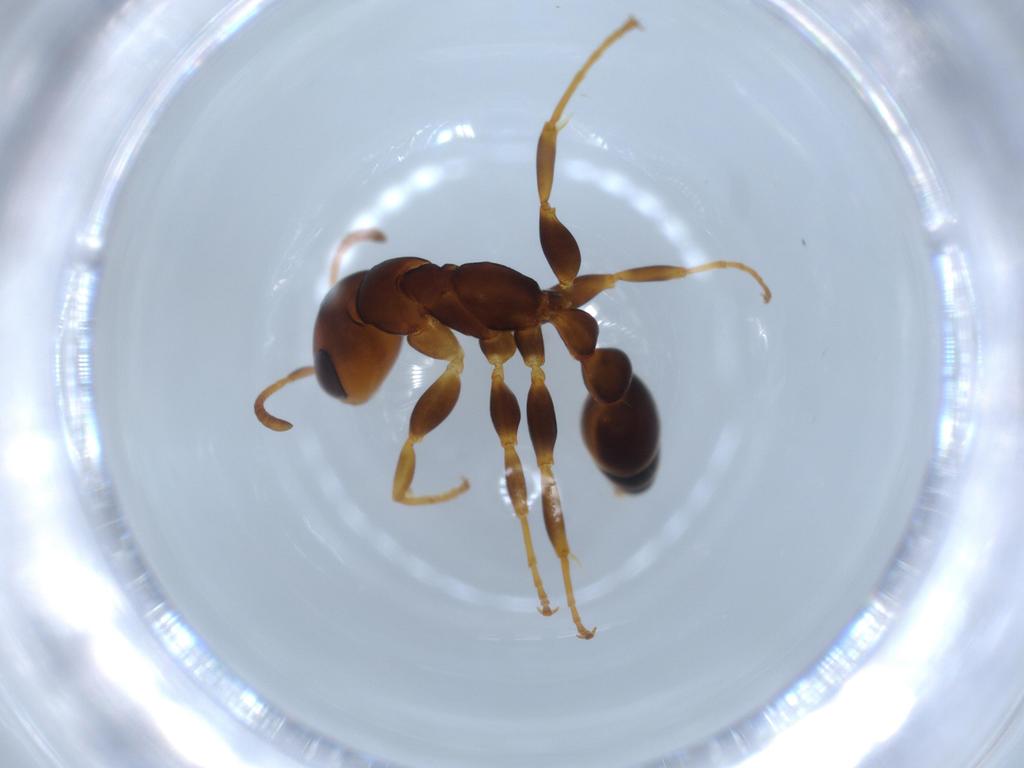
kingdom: Animalia
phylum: Arthropoda
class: Insecta
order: Hymenoptera
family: Formicidae
